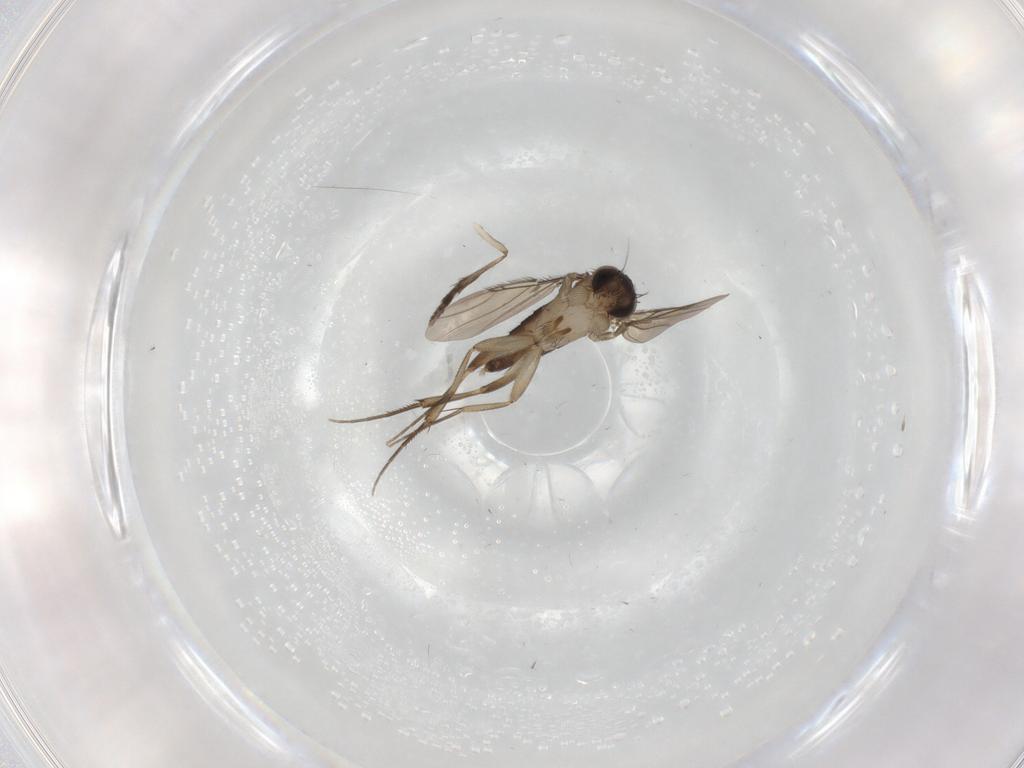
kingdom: Animalia
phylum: Arthropoda
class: Insecta
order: Diptera
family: Phoridae
